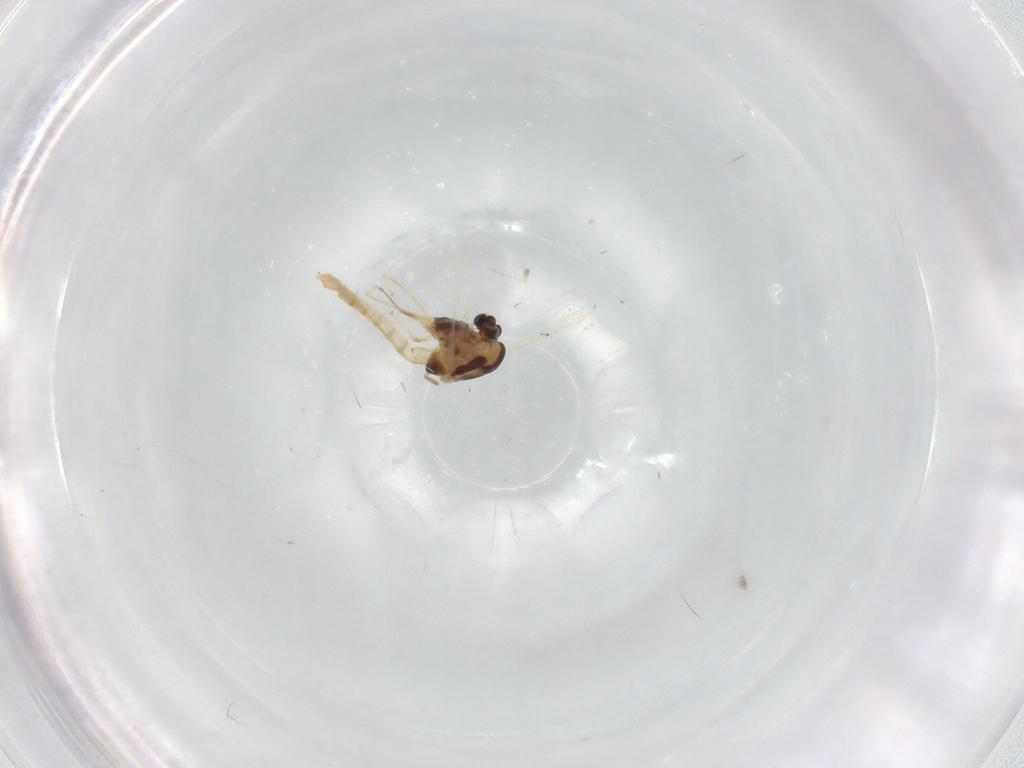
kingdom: Animalia
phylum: Arthropoda
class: Insecta
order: Diptera
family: Chironomidae
